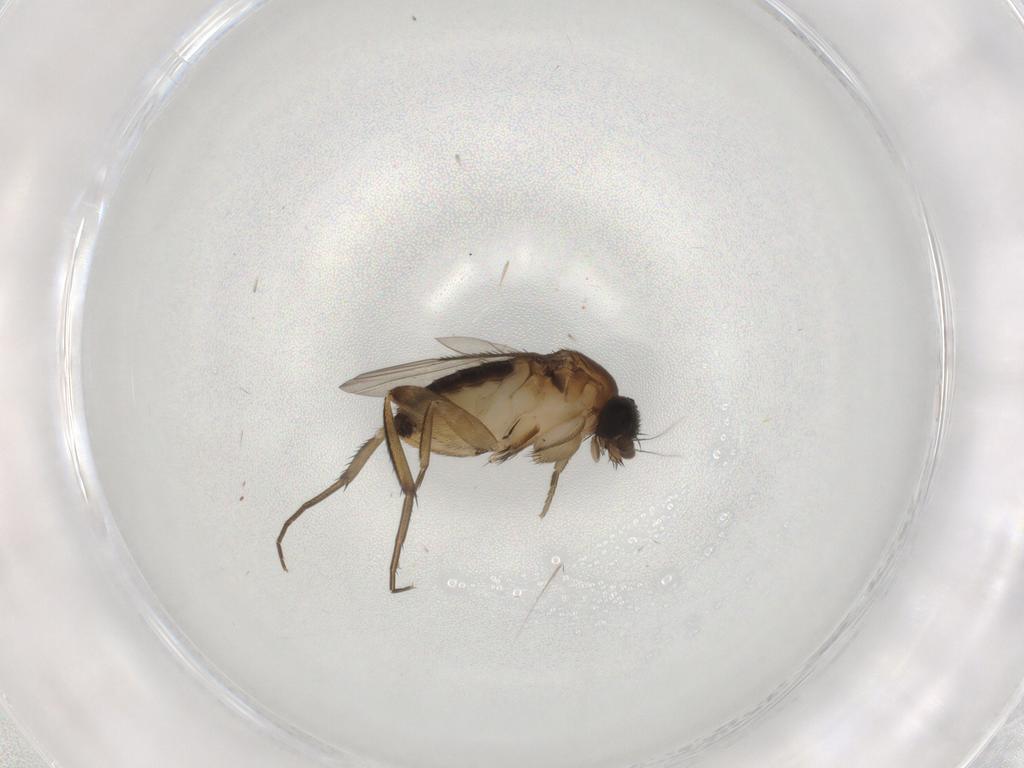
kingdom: Animalia
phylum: Arthropoda
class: Insecta
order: Diptera
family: Phoridae
